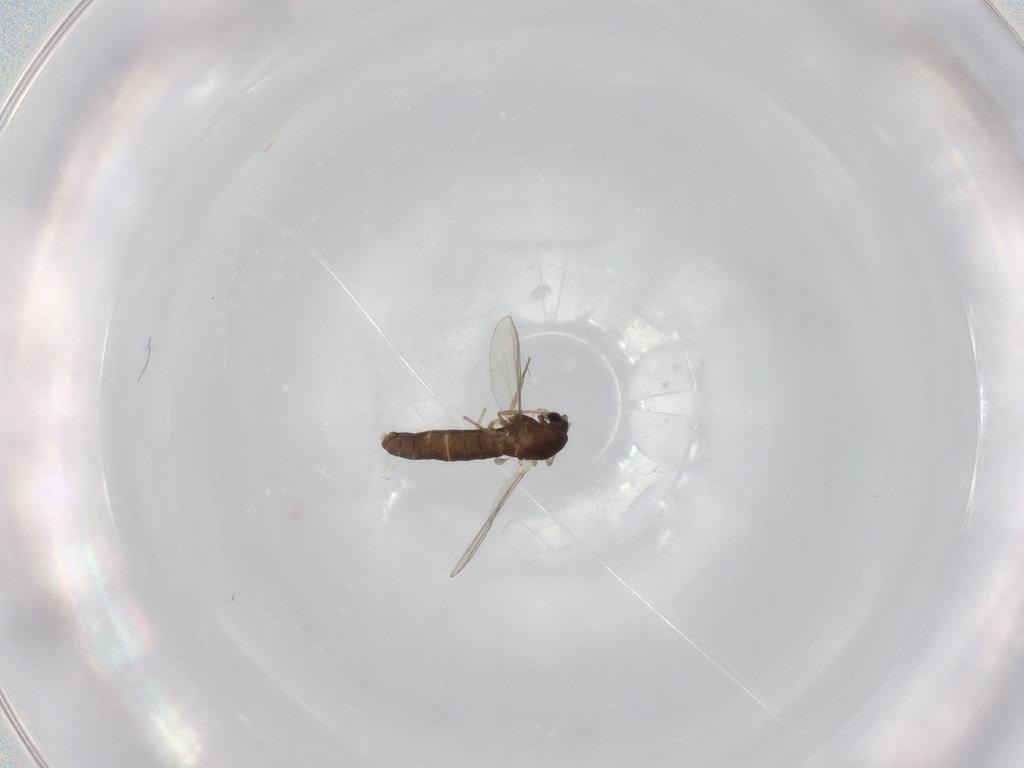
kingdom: Animalia
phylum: Arthropoda
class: Insecta
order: Diptera
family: Chironomidae
